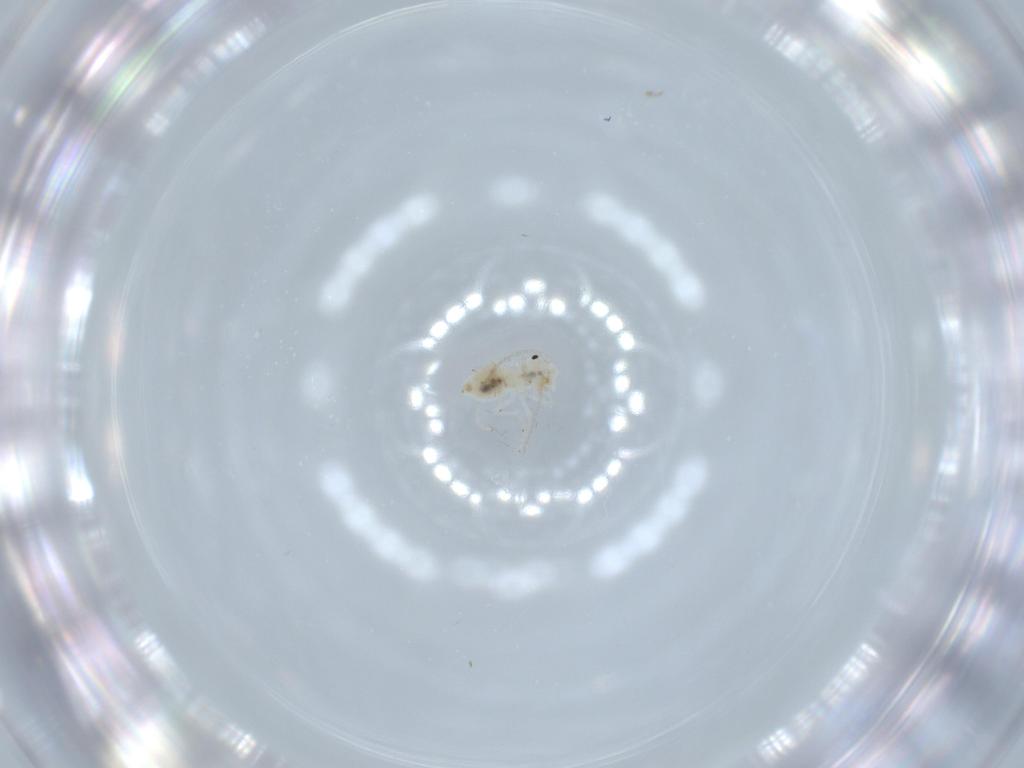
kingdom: Animalia
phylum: Arthropoda
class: Insecta
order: Psocodea
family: Caeciliusidae
